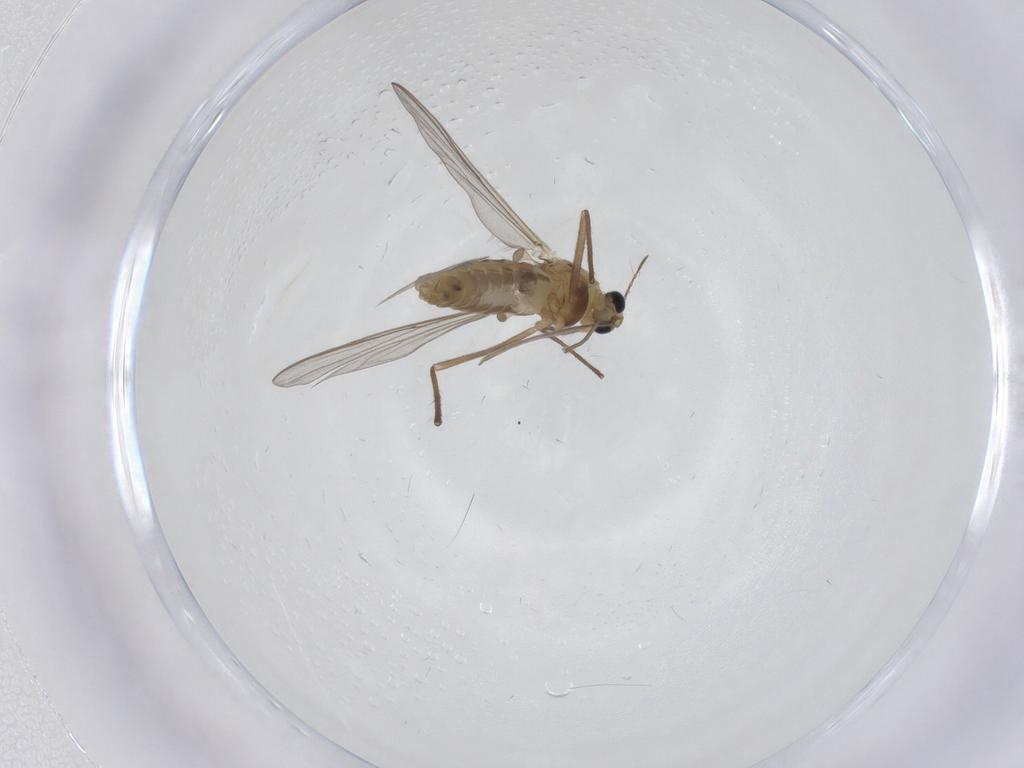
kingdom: Animalia
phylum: Arthropoda
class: Insecta
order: Diptera
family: Chironomidae
